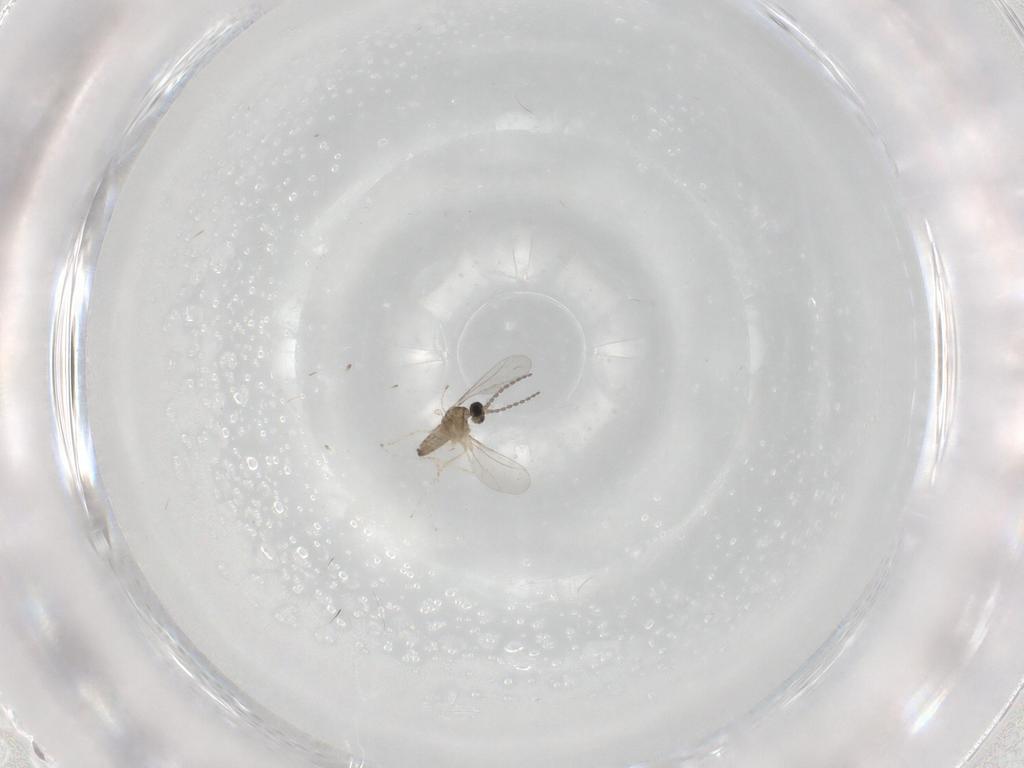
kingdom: Animalia
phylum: Arthropoda
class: Insecta
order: Diptera
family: Cecidomyiidae
